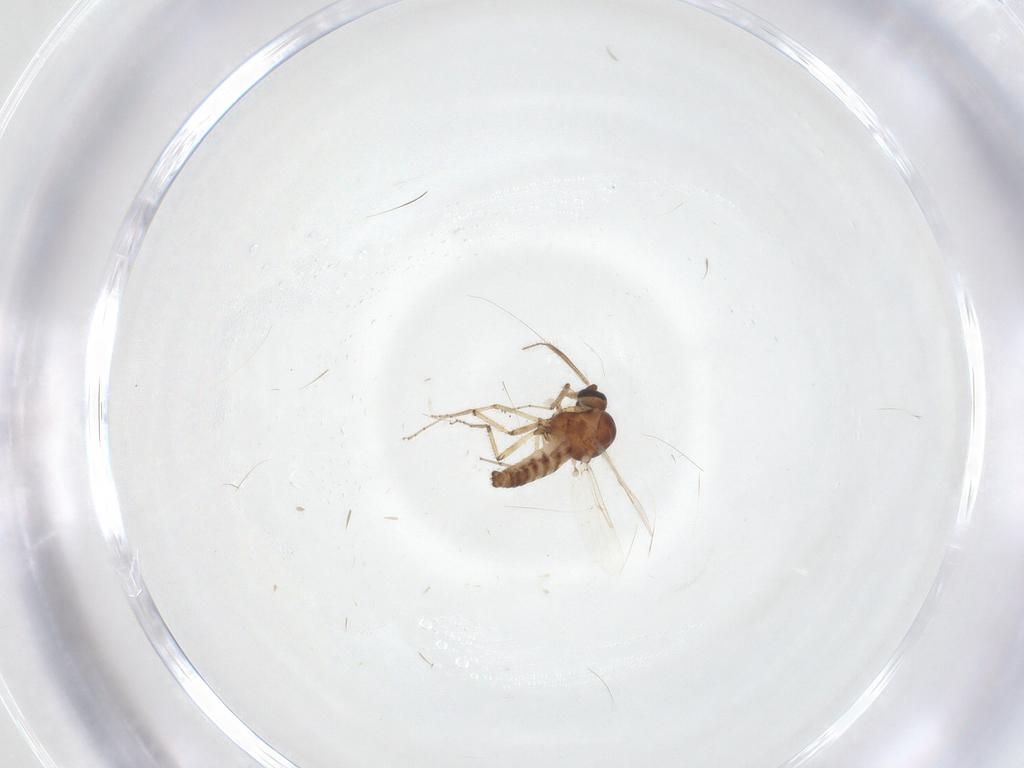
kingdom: Animalia
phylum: Arthropoda
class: Insecta
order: Diptera
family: Ceratopogonidae
